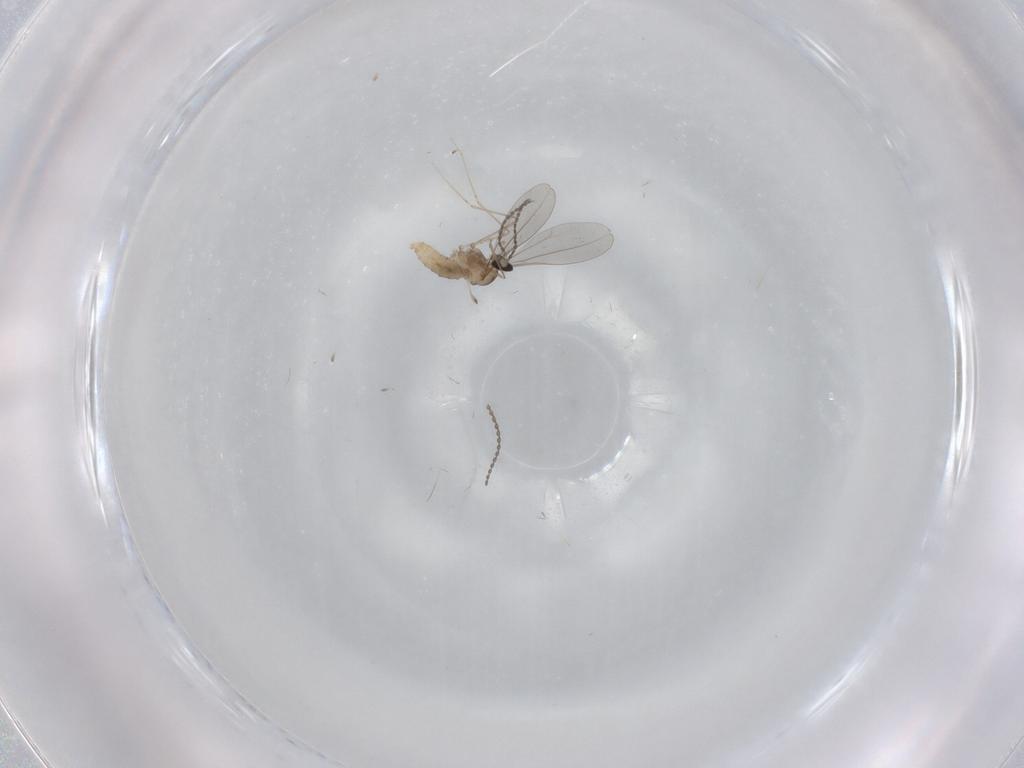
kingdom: Animalia
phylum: Arthropoda
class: Insecta
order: Diptera
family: Cecidomyiidae
